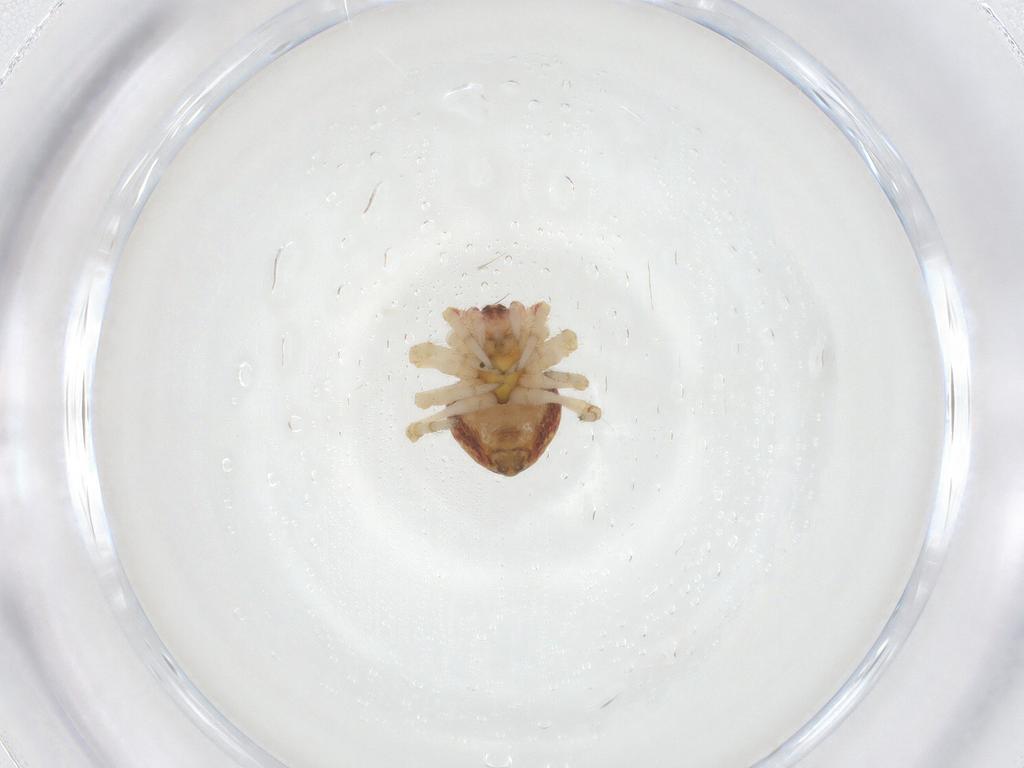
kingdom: Animalia
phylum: Arthropoda
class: Arachnida
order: Araneae
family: Araneidae
